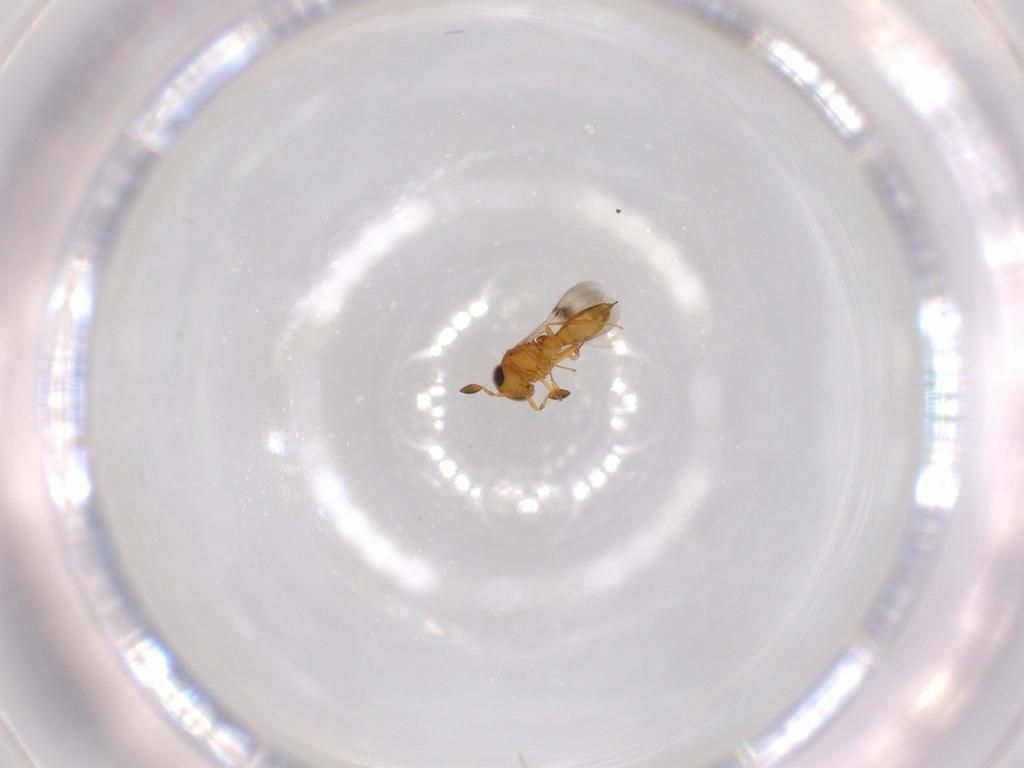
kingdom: Animalia
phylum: Arthropoda
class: Insecta
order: Hymenoptera
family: Scelionidae
